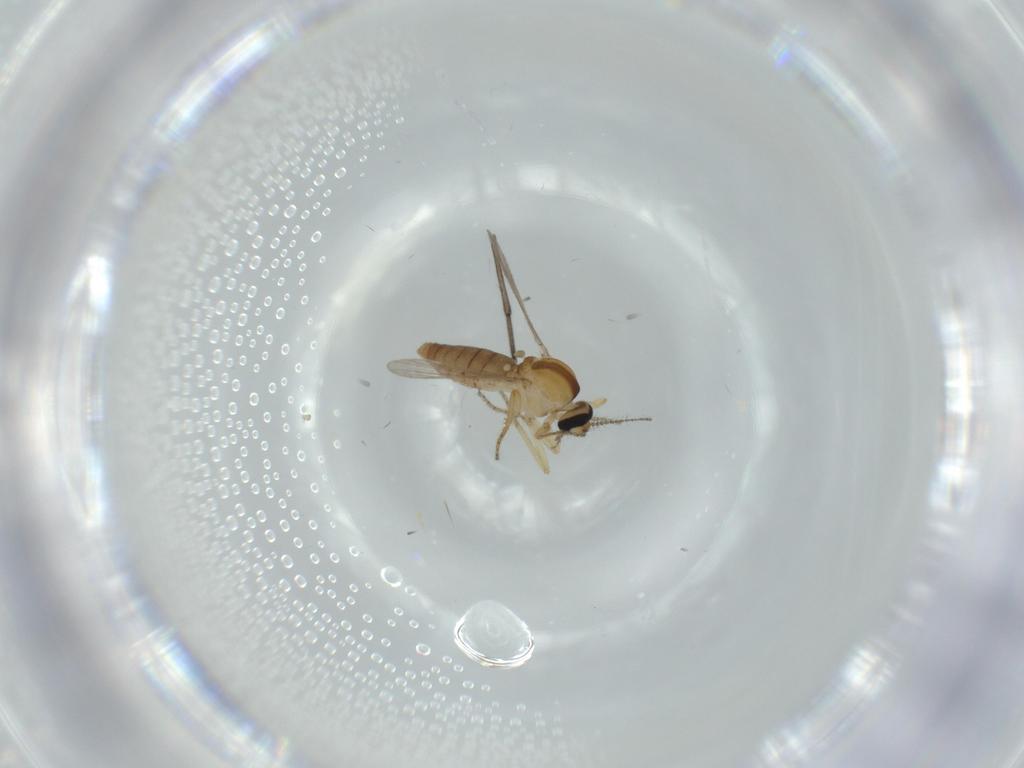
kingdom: Animalia
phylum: Arthropoda
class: Insecta
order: Diptera
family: Ceratopogonidae
